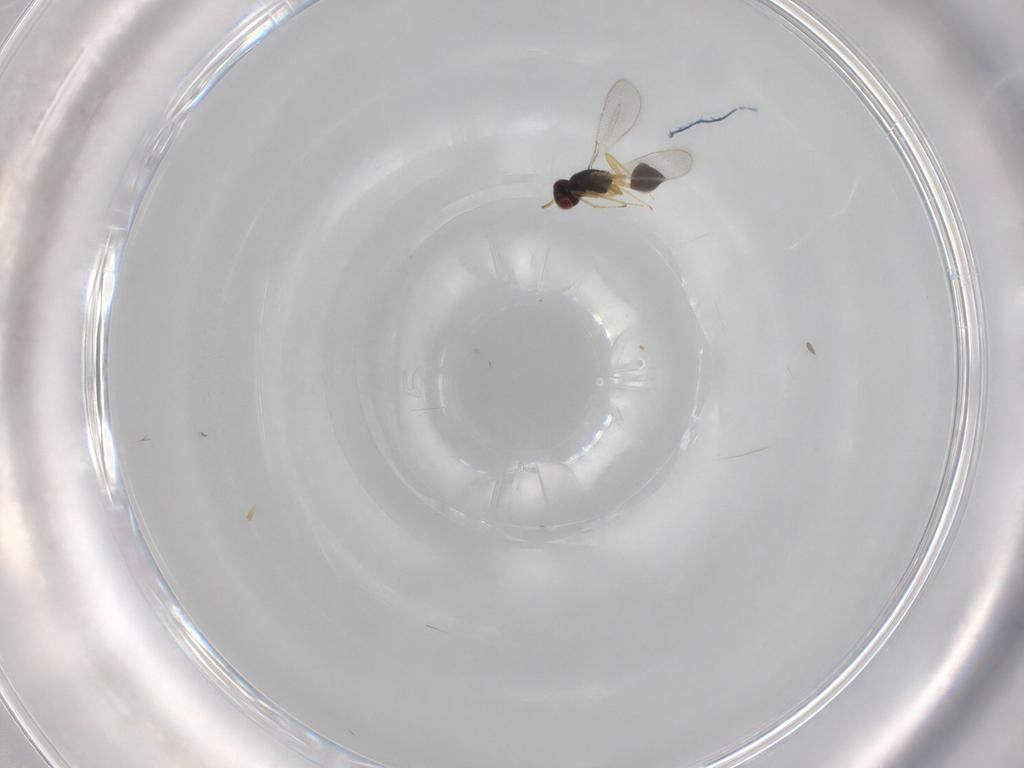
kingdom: Animalia
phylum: Arthropoda
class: Insecta
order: Hymenoptera
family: Mymaridae
